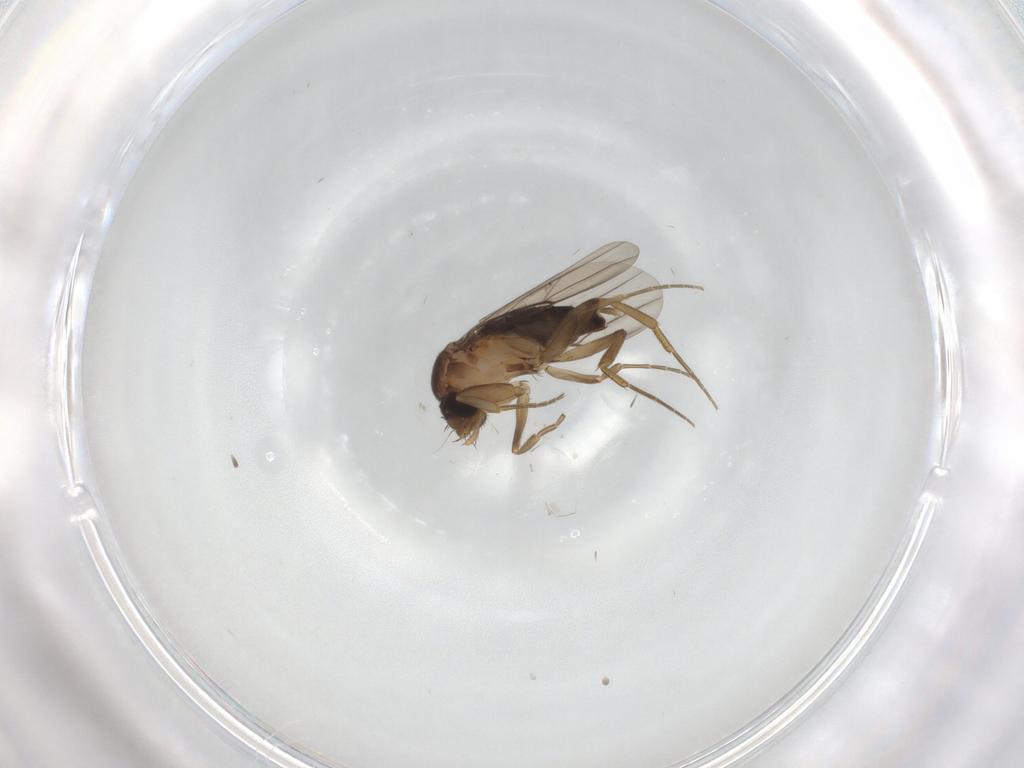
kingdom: Animalia
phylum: Arthropoda
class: Insecta
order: Diptera
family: Phoridae
